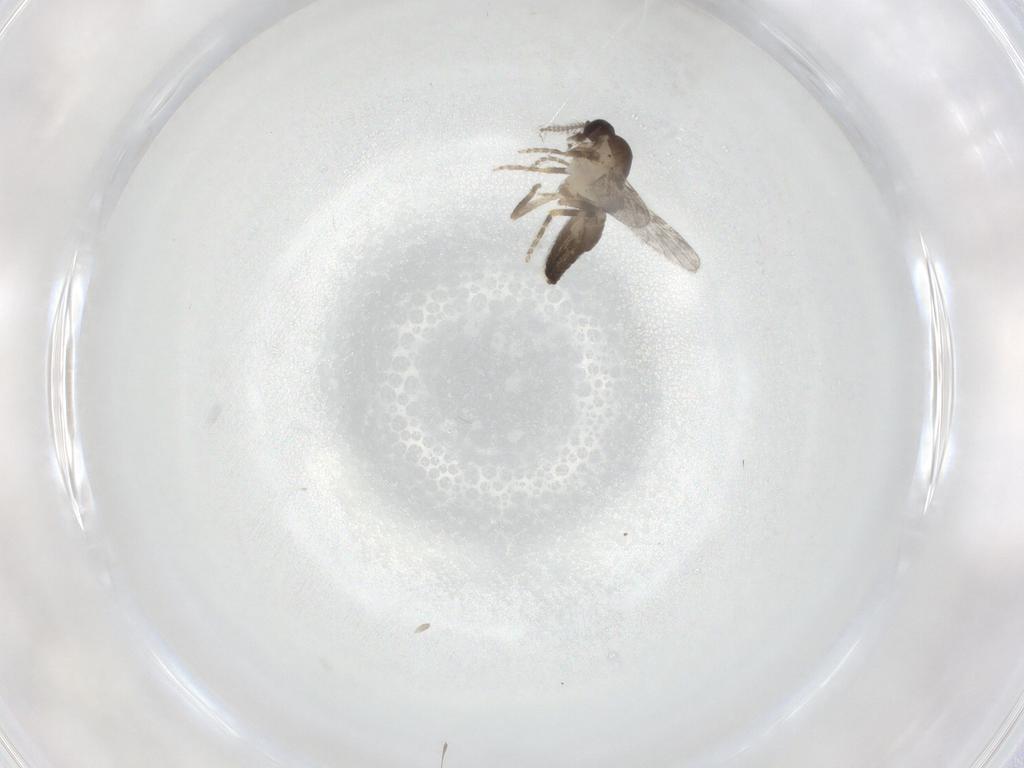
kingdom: Animalia
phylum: Arthropoda
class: Insecta
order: Diptera
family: Ceratopogonidae
